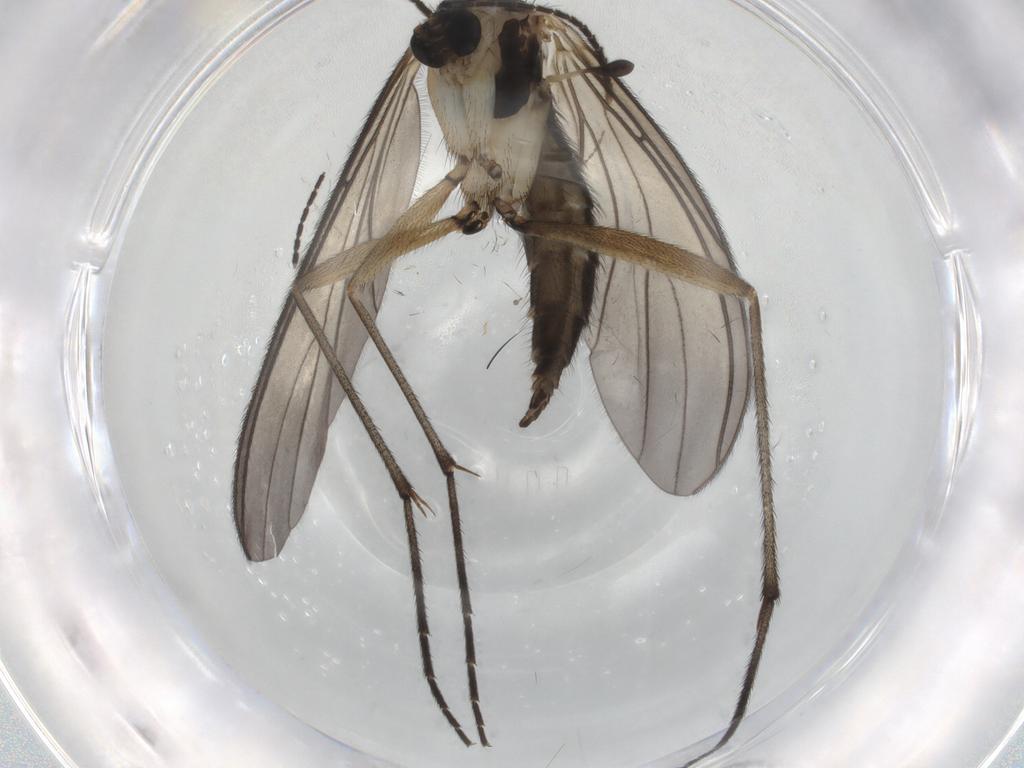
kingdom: Animalia
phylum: Arthropoda
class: Insecta
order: Diptera
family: Sciaridae
